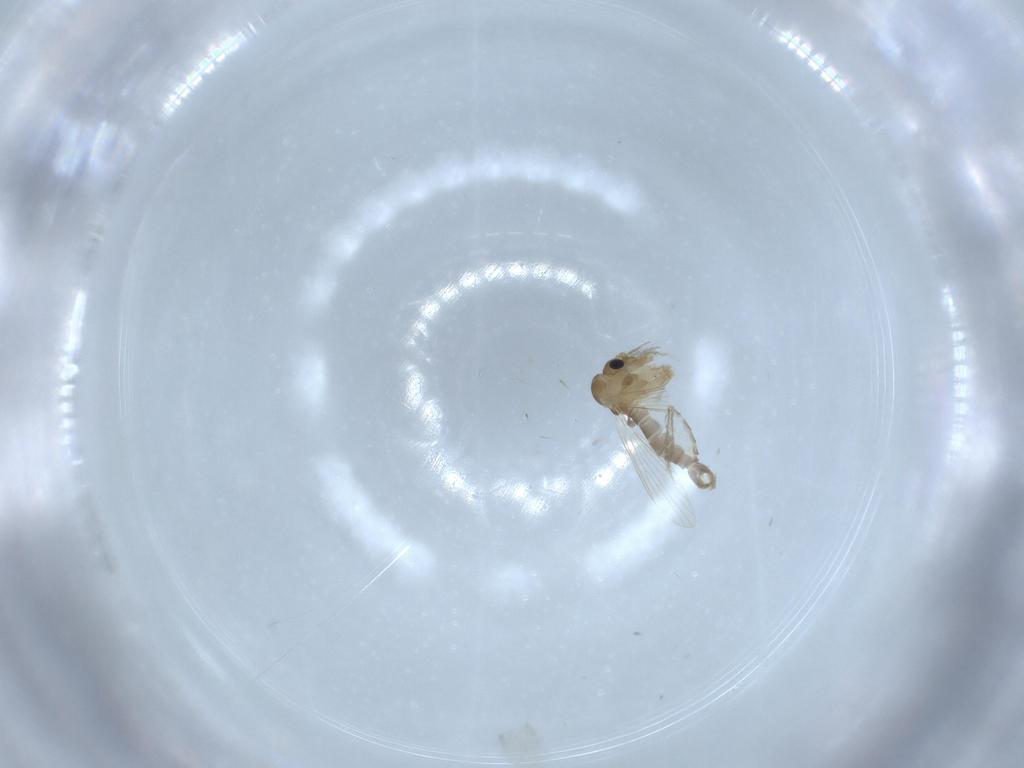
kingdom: Animalia
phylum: Arthropoda
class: Insecta
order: Diptera
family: Psychodidae
